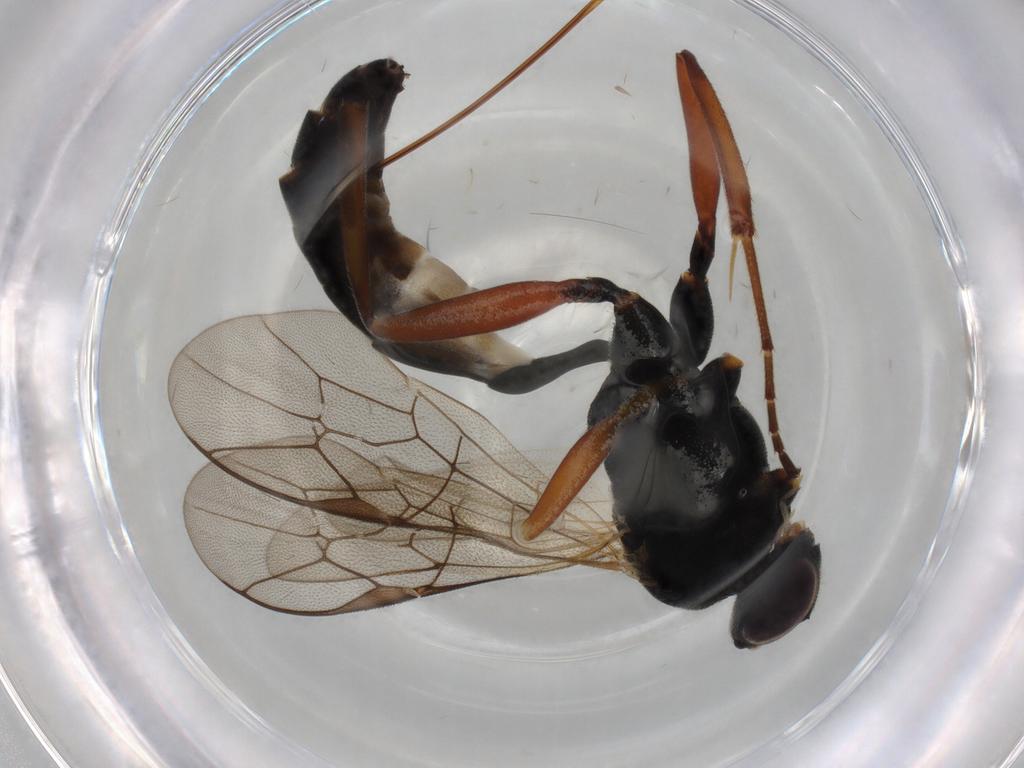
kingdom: Animalia
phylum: Arthropoda
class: Insecta
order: Hymenoptera
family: Ichneumonidae
